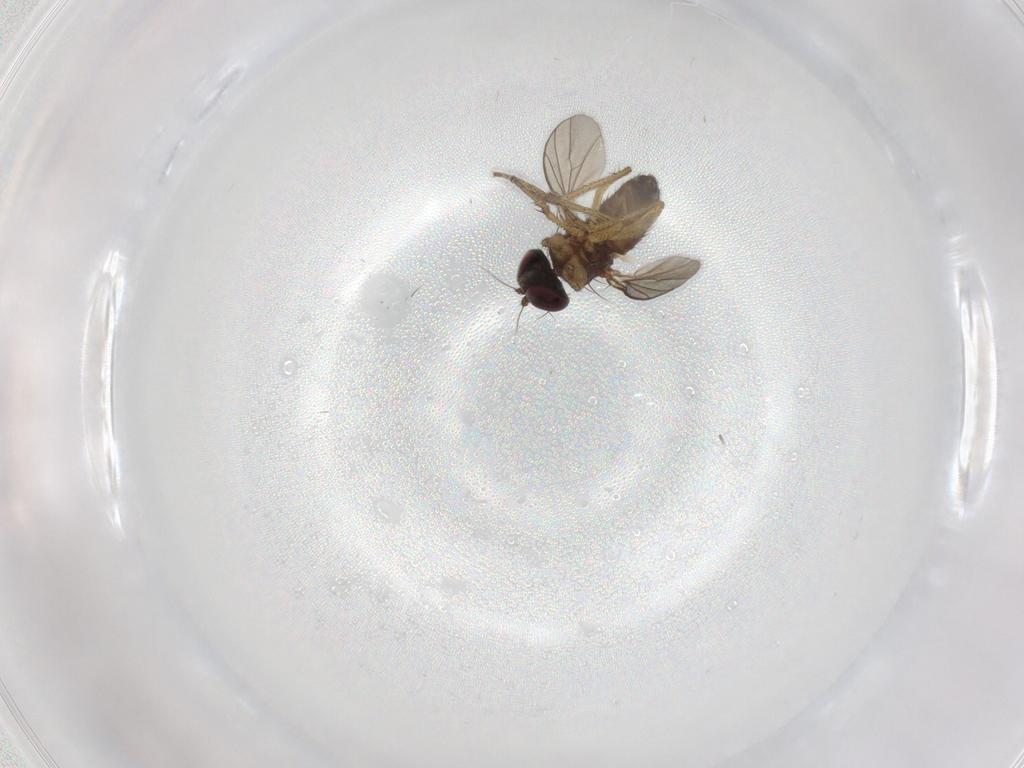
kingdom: Animalia
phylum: Arthropoda
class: Insecta
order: Diptera
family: Dolichopodidae
